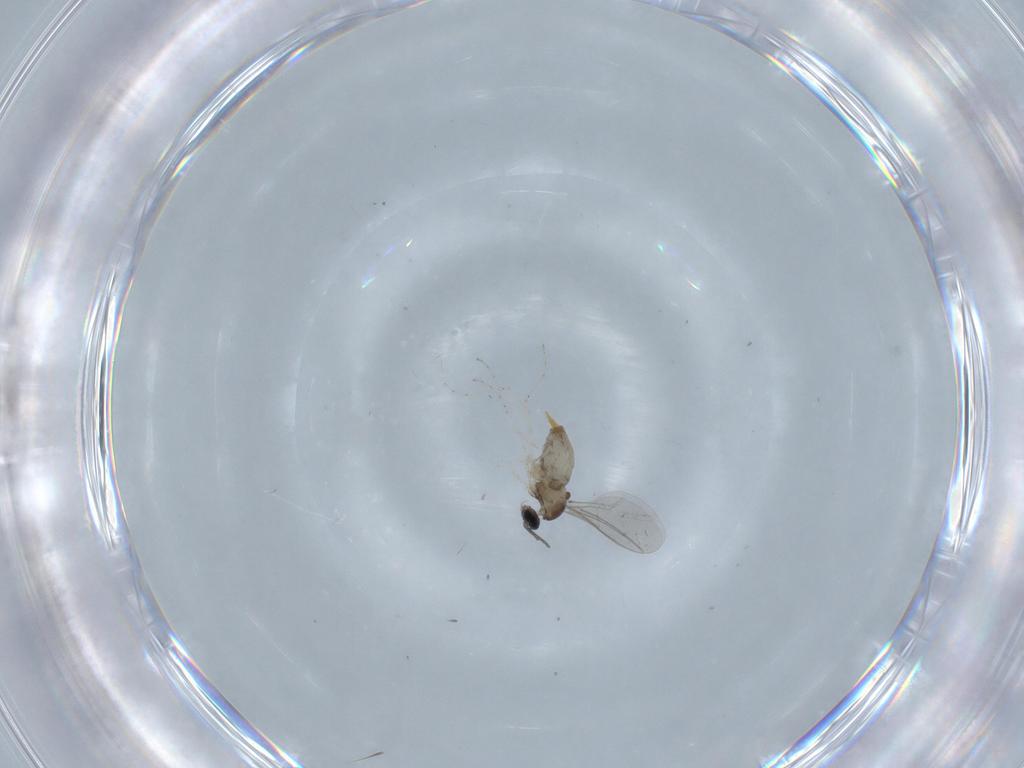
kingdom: Animalia
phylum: Arthropoda
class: Insecta
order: Diptera
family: Cecidomyiidae
